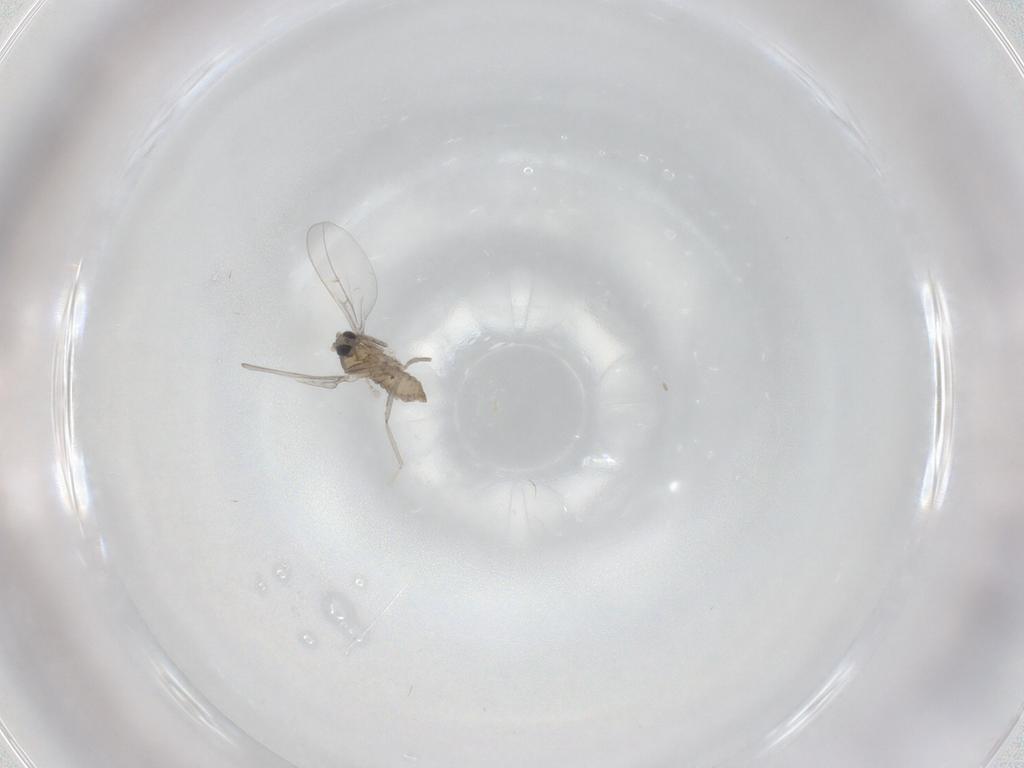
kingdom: Animalia
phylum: Arthropoda
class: Insecta
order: Diptera
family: Cecidomyiidae
